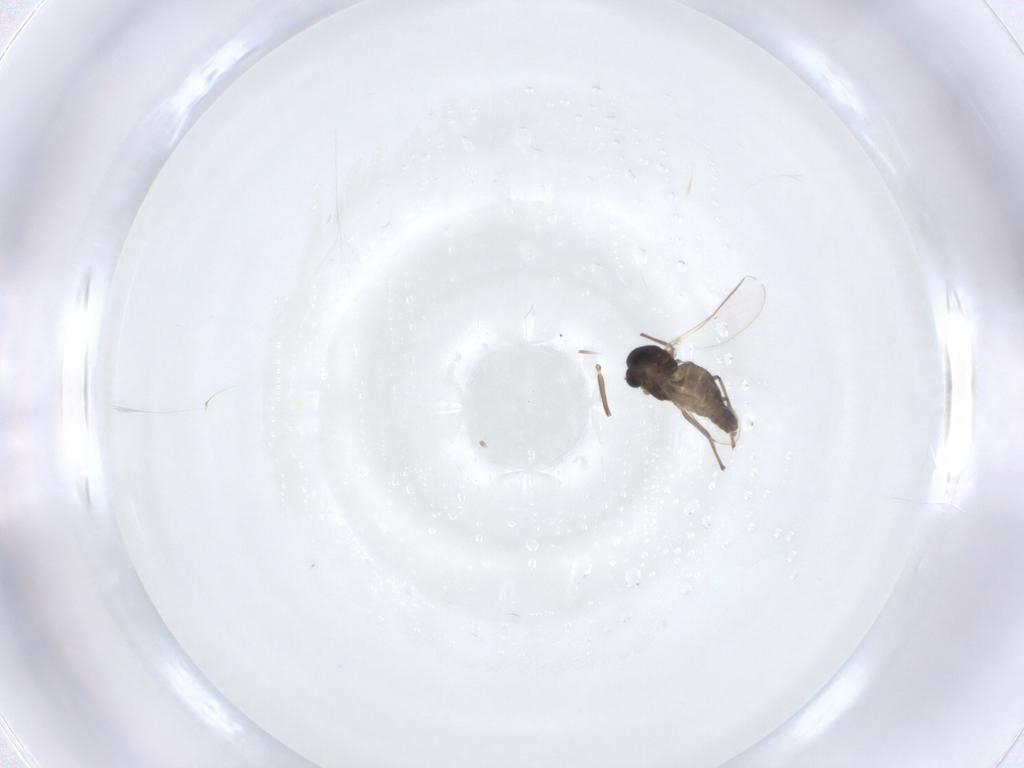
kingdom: Animalia
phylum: Arthropoda
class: Insecta
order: Diptera
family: Chironomidae
